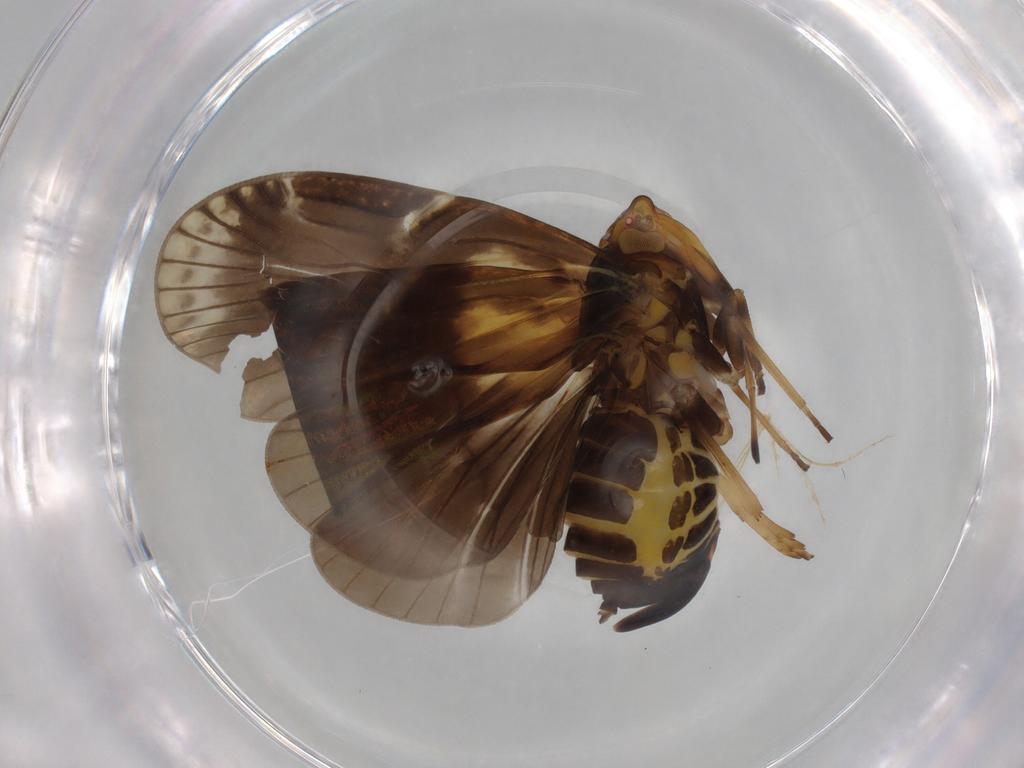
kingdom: Animalia
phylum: Arthropoda
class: Insecta
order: Hemiptera
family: Cixiidae
